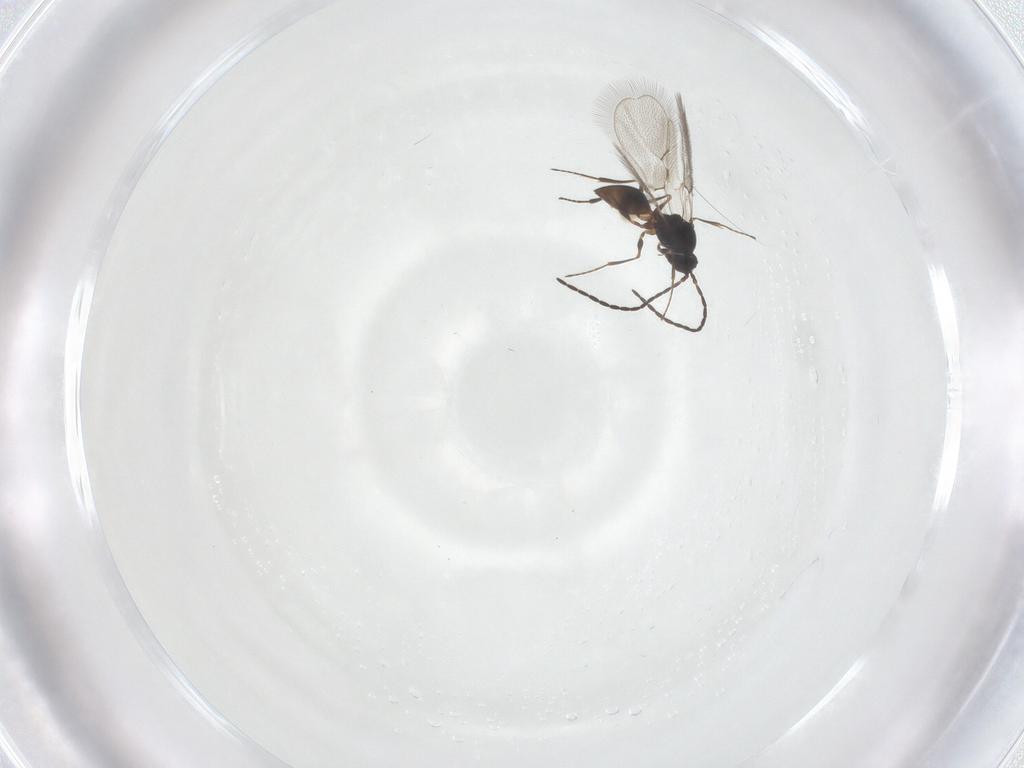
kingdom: Animalia
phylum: Arthropoda
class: Insecta
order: Hymenoptera
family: Figitidae
